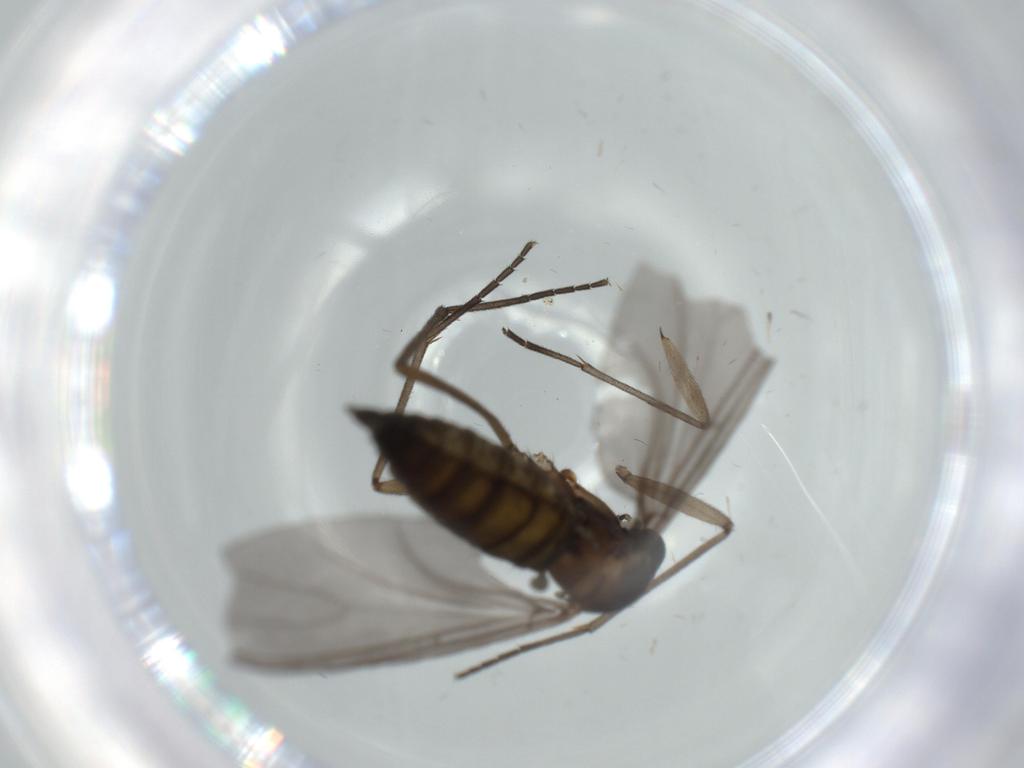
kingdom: Animalia
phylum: Arthropoda
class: Insecta
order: Diptera
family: Sciaridae
